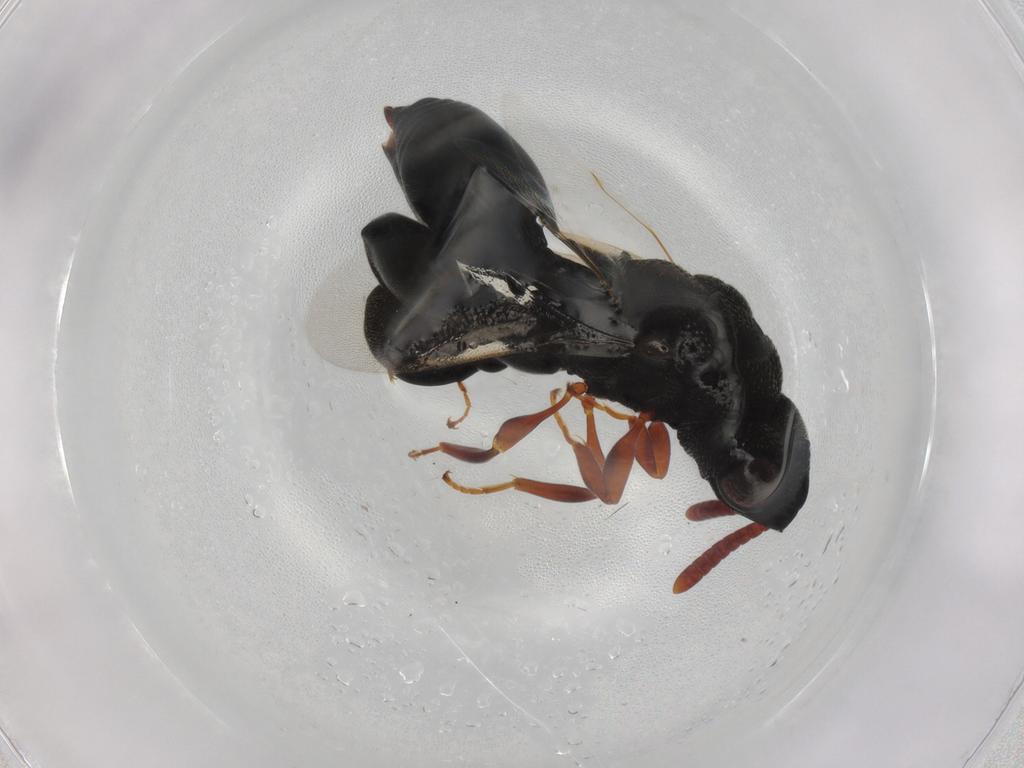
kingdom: Animalia
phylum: Arthropoda
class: Insecta
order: Hymenoptera
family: Chalcididae
